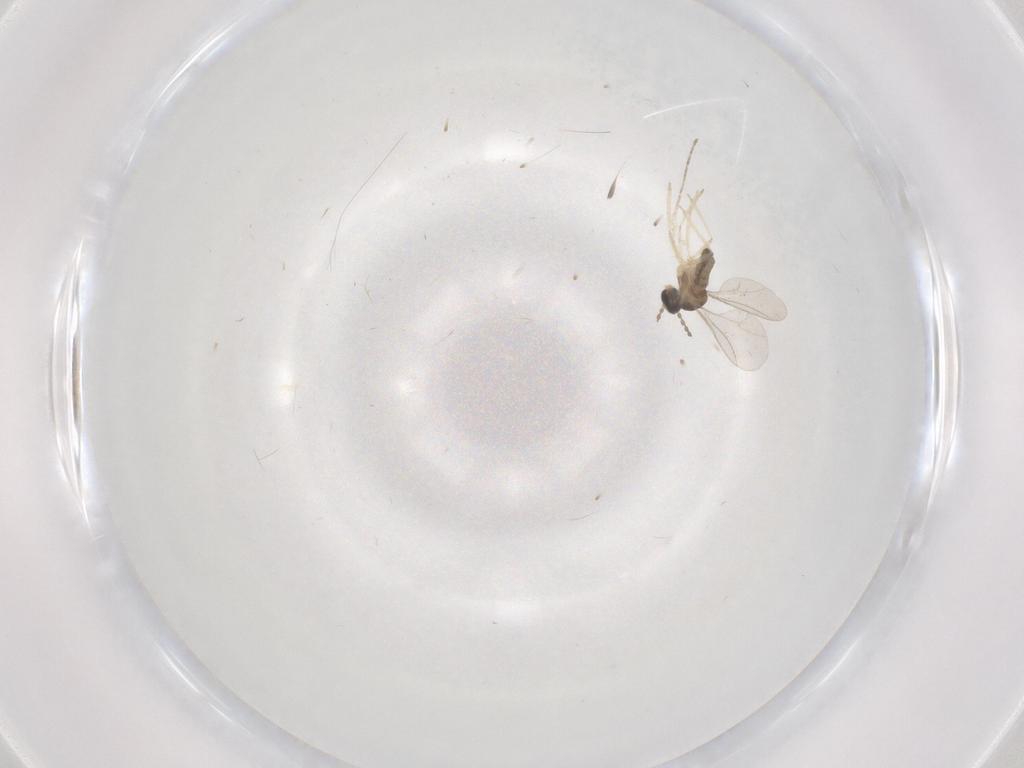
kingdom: Animalia
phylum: Arthropoda
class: Insecta
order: Diptera
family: Cecidomyiidae
